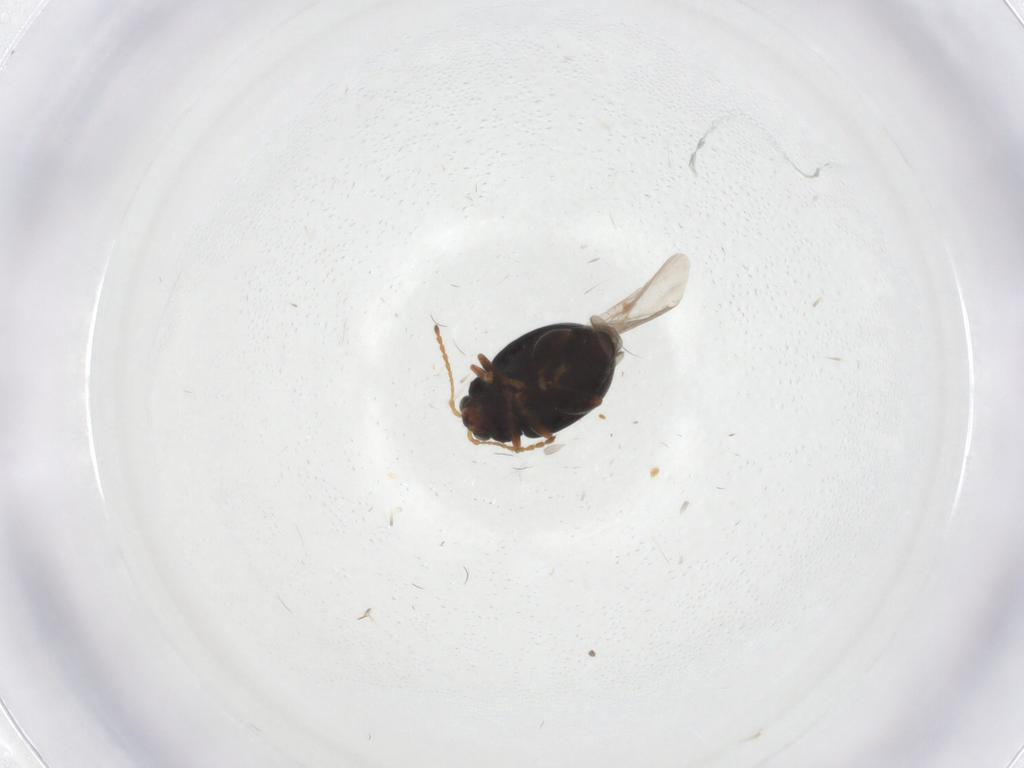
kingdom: Animalia
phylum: Arthropoda
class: Insecta
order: Coleoptera
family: Chrysomelidae
